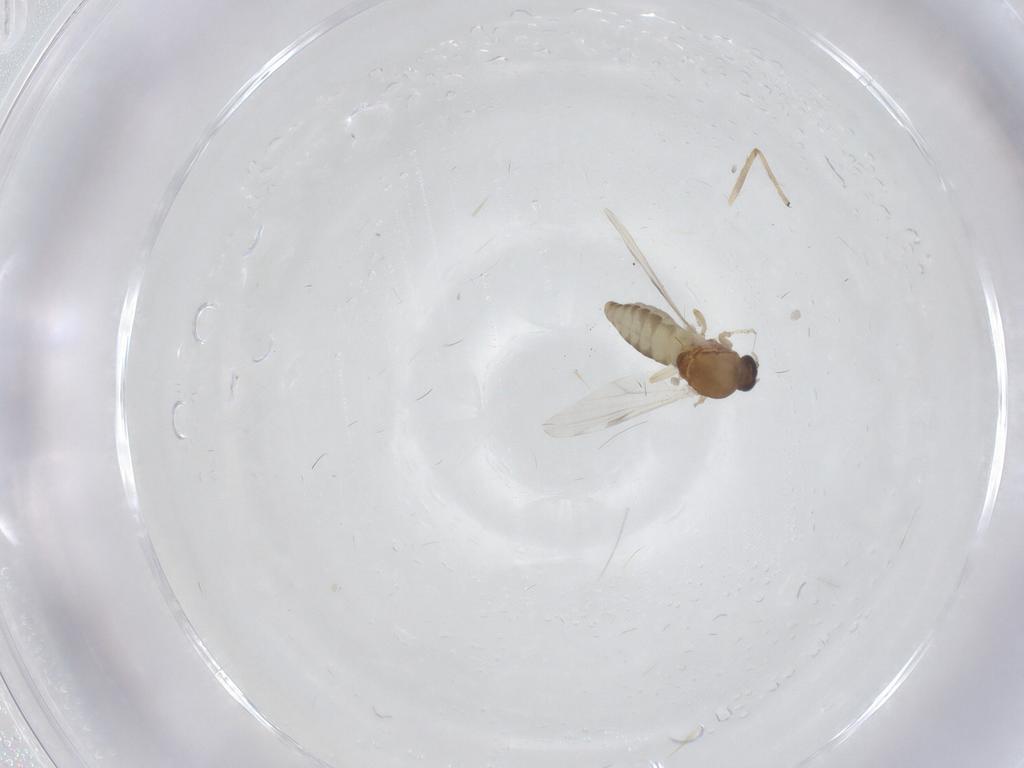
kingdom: Animalia
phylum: Arthropoda
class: Insecta
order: Diptera
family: Ceratopogonidae
